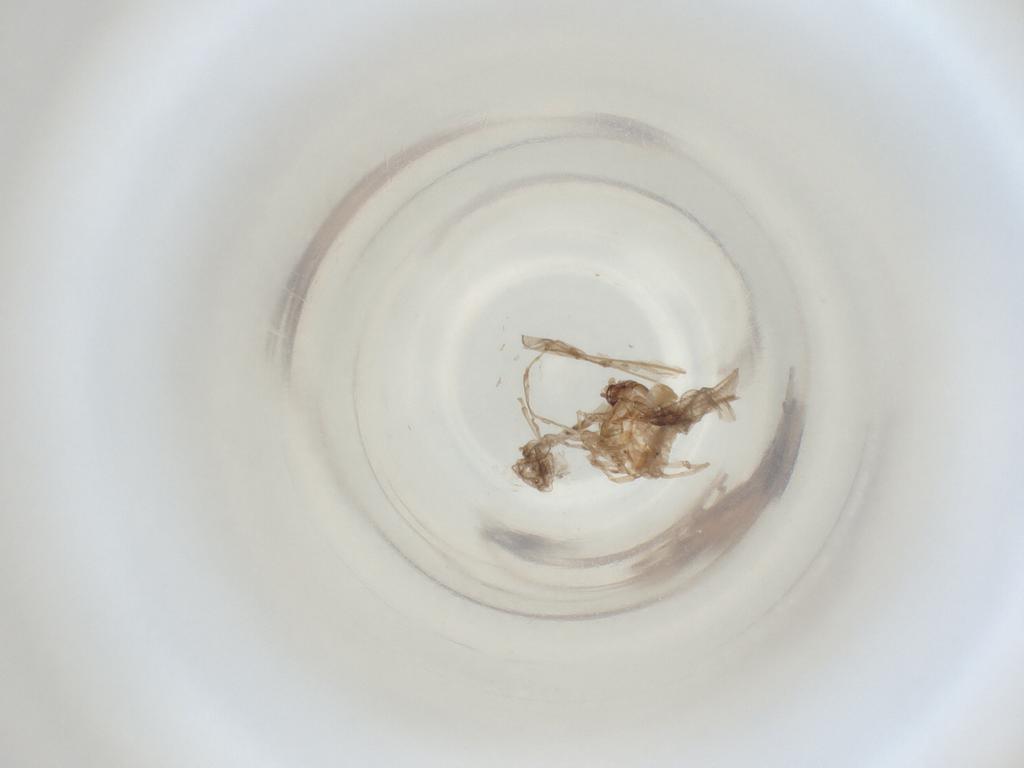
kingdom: Animalia
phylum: Arthropoda
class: Insecta
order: Diptera
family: Cecidomyiidae
